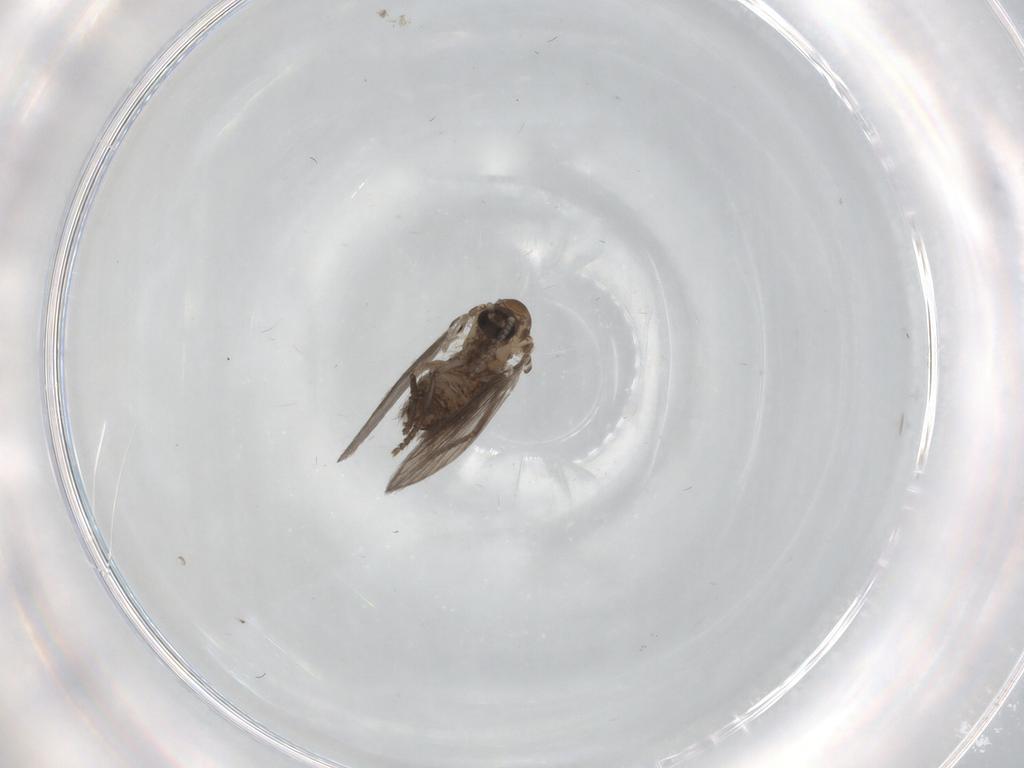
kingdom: Animalia
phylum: Arthropoda
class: Insecta
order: Diptera
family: Psychodidae
